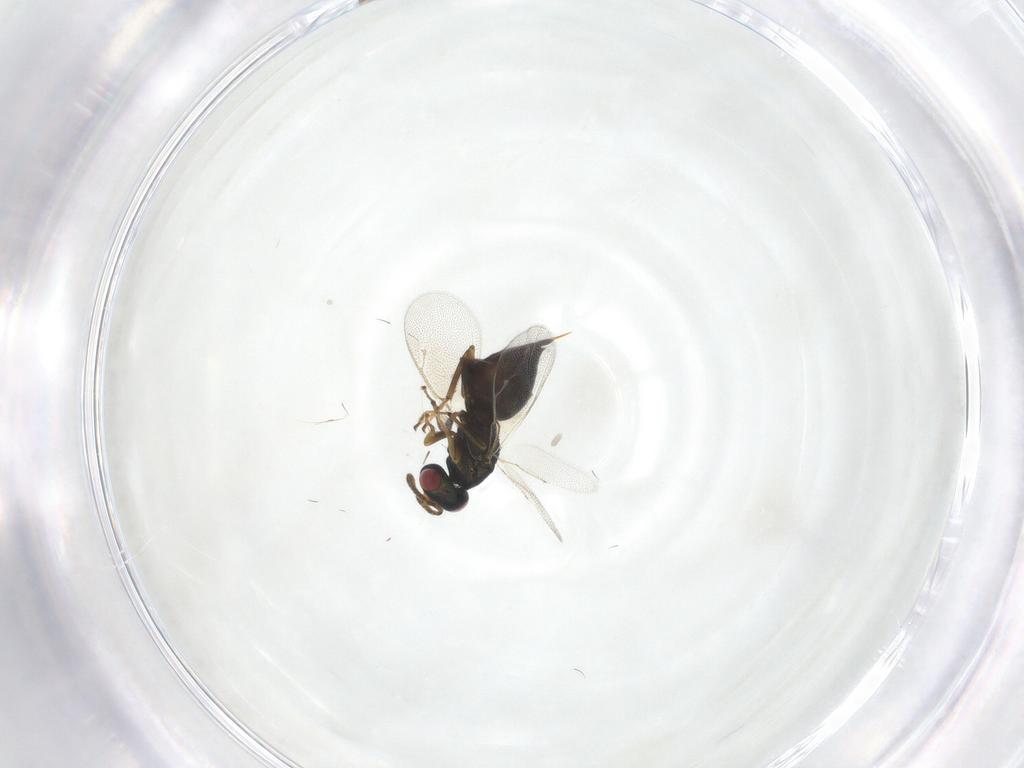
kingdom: Animalia
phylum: Arthropoda
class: Insecta
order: Hymenoptera
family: Pteromalidae
